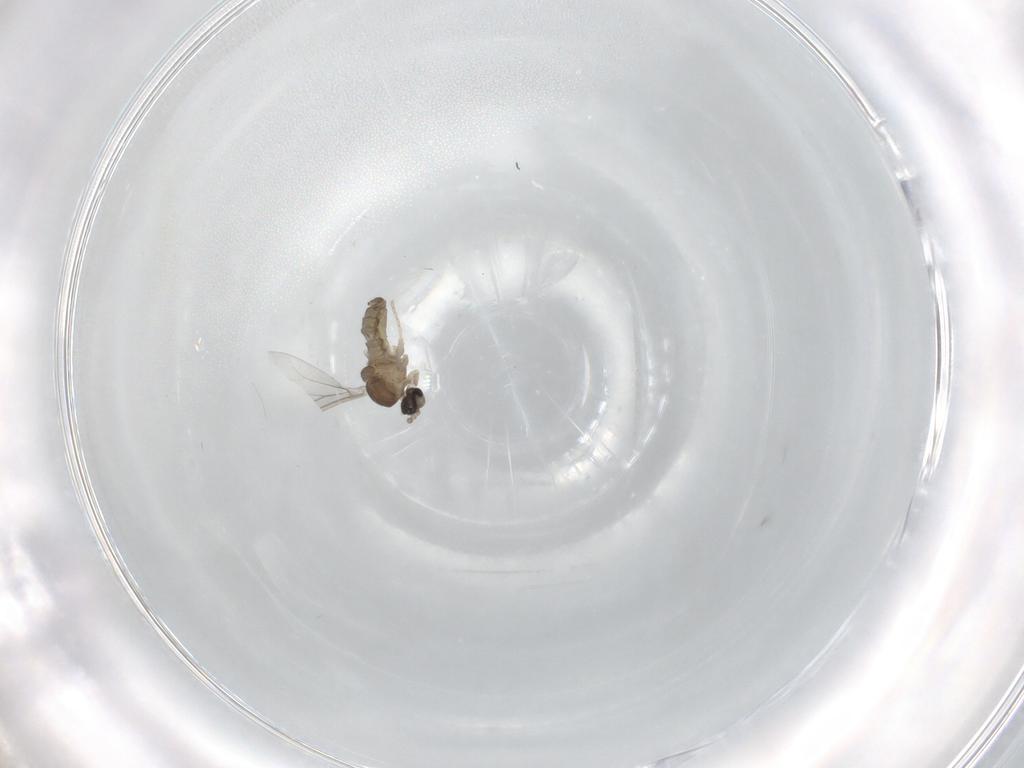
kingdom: Animalia
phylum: Arthropoda
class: Insecta
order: Diptera
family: Cecidomyiidae
